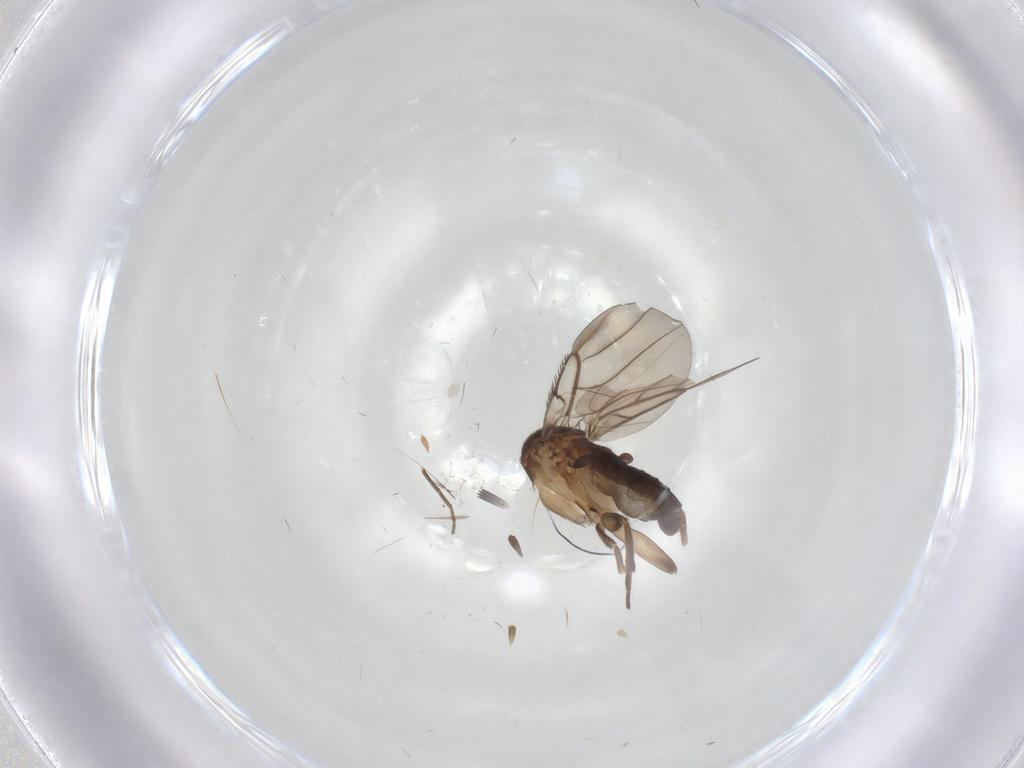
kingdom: Animalia
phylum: Arthropoda
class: Insecta
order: Diptera
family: Phoridae
